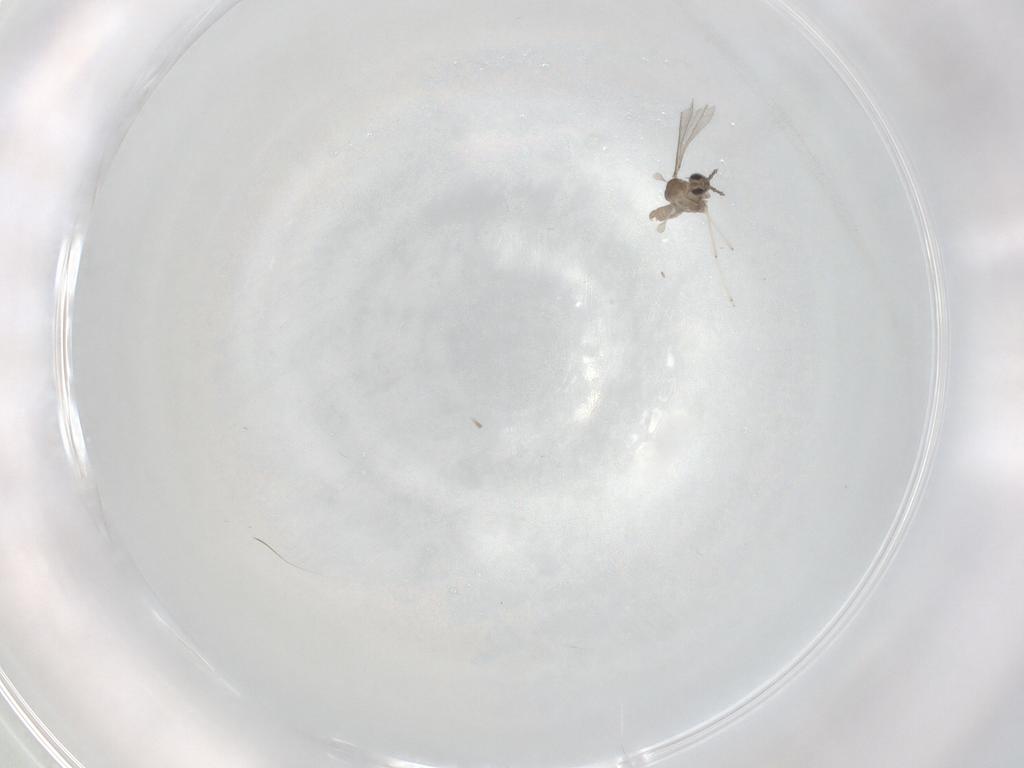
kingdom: Animalia
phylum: Arthropoda
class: Insecta
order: Diptera
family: Cecidomyiidae
